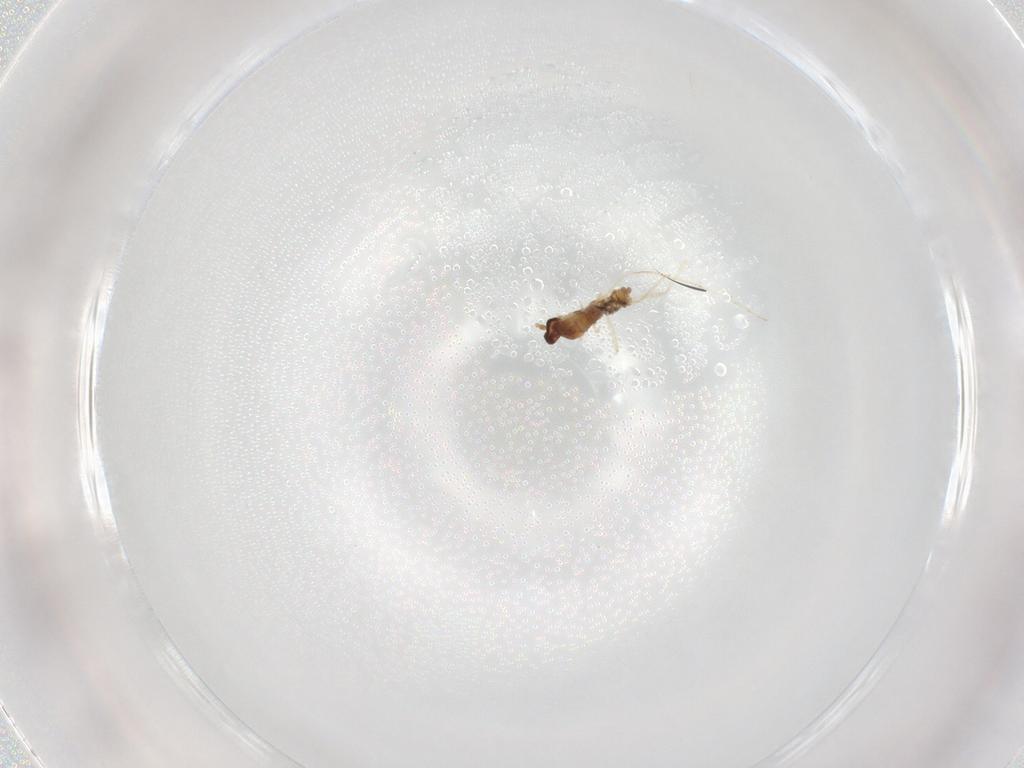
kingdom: Animalia
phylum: Arthropoda
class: Insecta
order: Diptera
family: Cecidomyiidae
